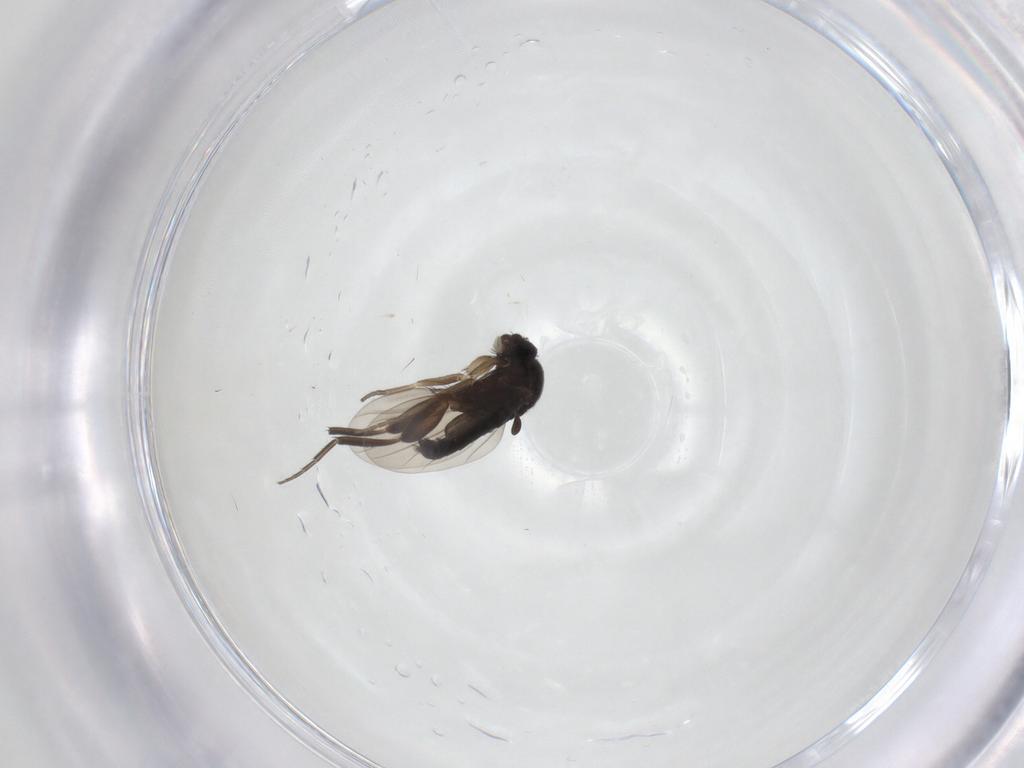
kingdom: Animalia
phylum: Arthropoda
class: Insecta
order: Diptera
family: Phoridae
